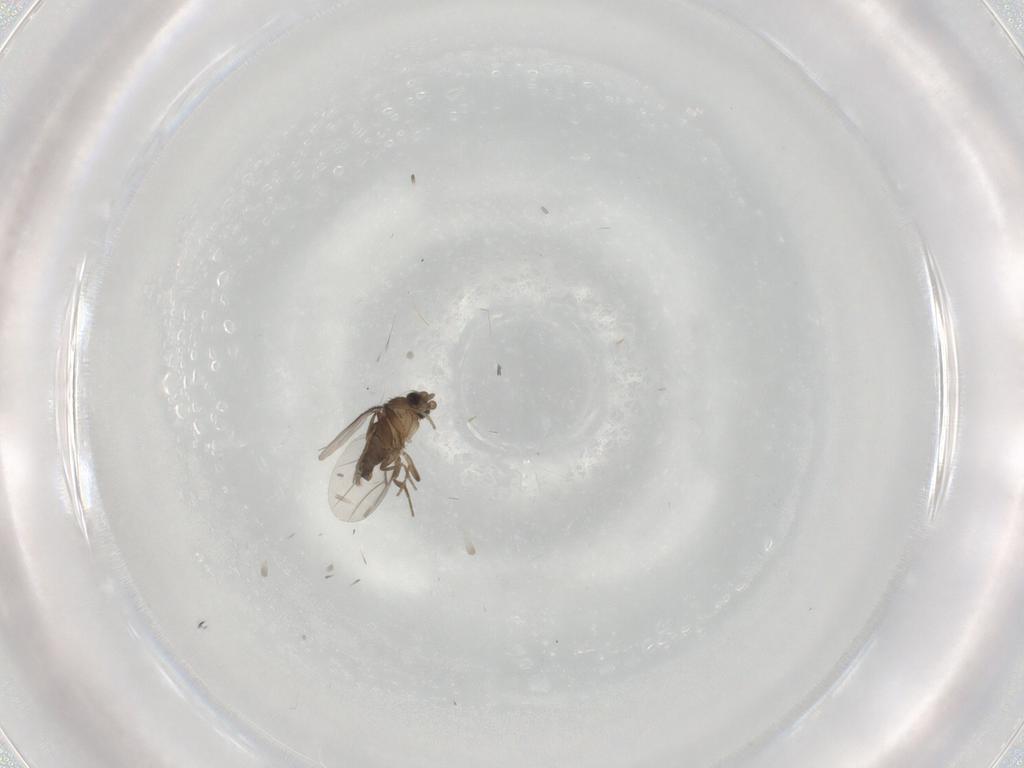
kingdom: Animalia
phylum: Arthropoda
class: Insecta
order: Diptera
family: Phoridae
